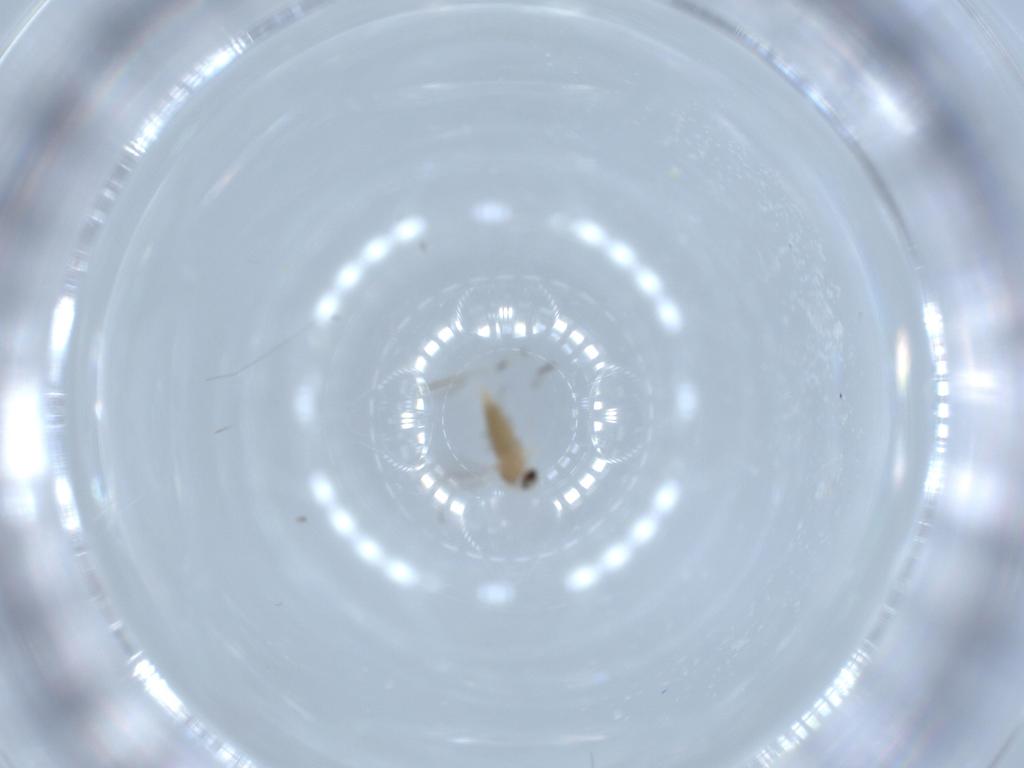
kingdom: Animalia
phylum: Arthropoda
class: Insecta
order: Diptera
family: Cecidomyiidae
